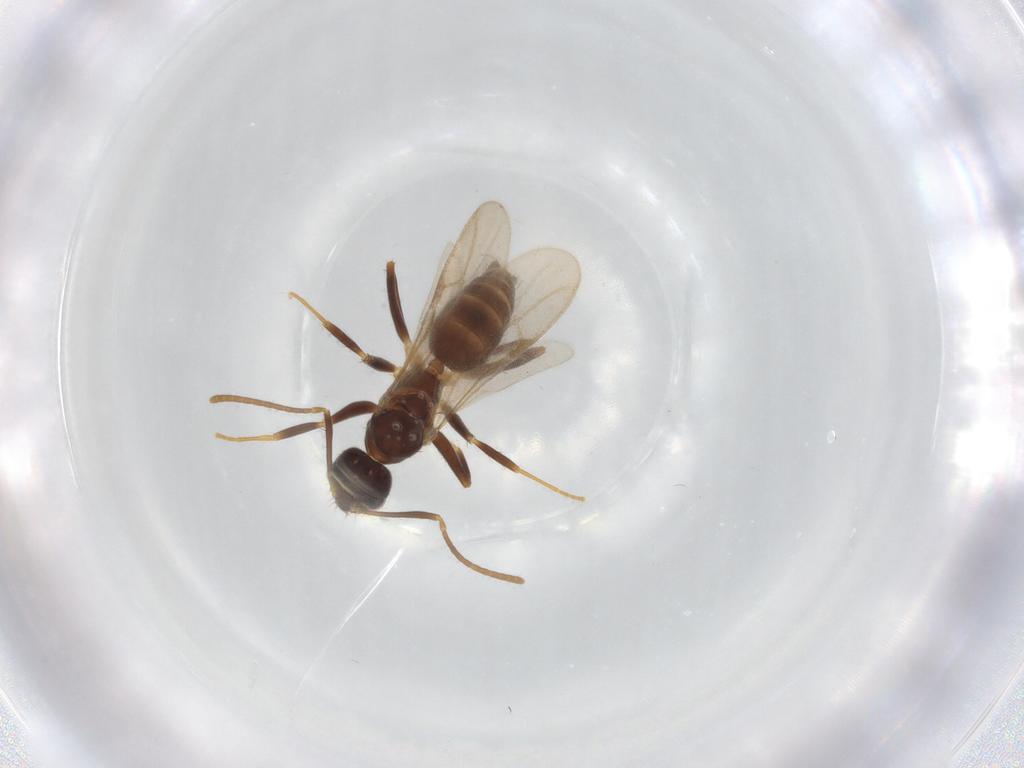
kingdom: Animalia
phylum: Arthropoda
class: Insecta
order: Hymenoptera
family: Formicidae
